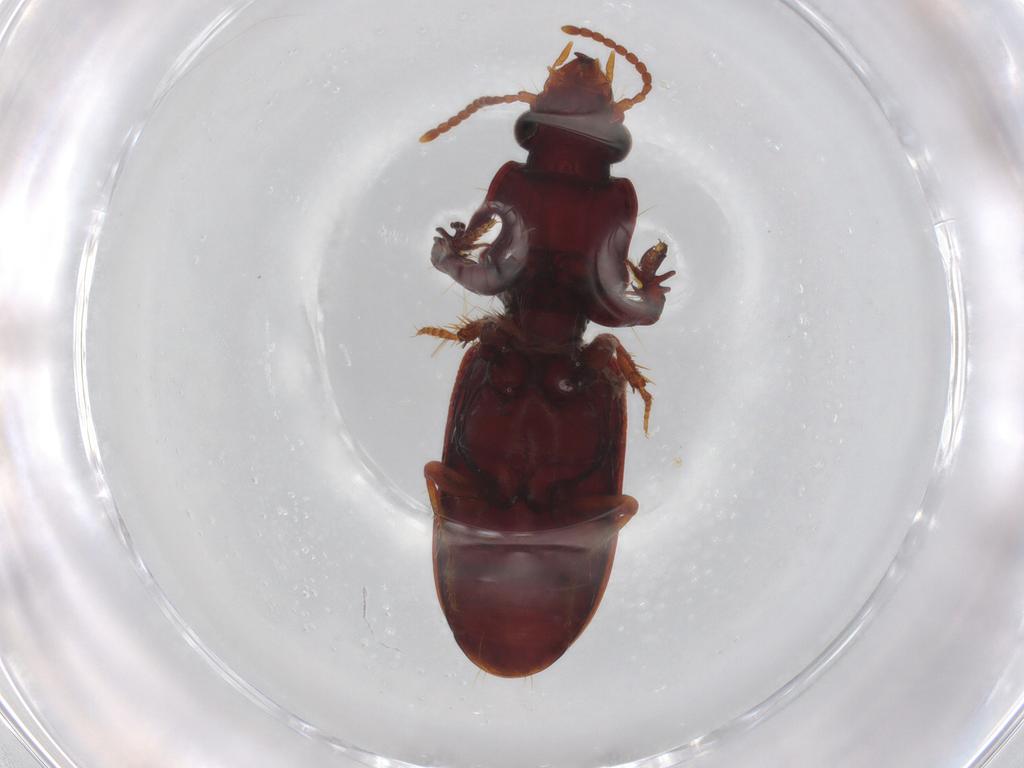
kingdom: Animalia
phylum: Arthropoda
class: Insecta
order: Coleoptera
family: Carabidae
